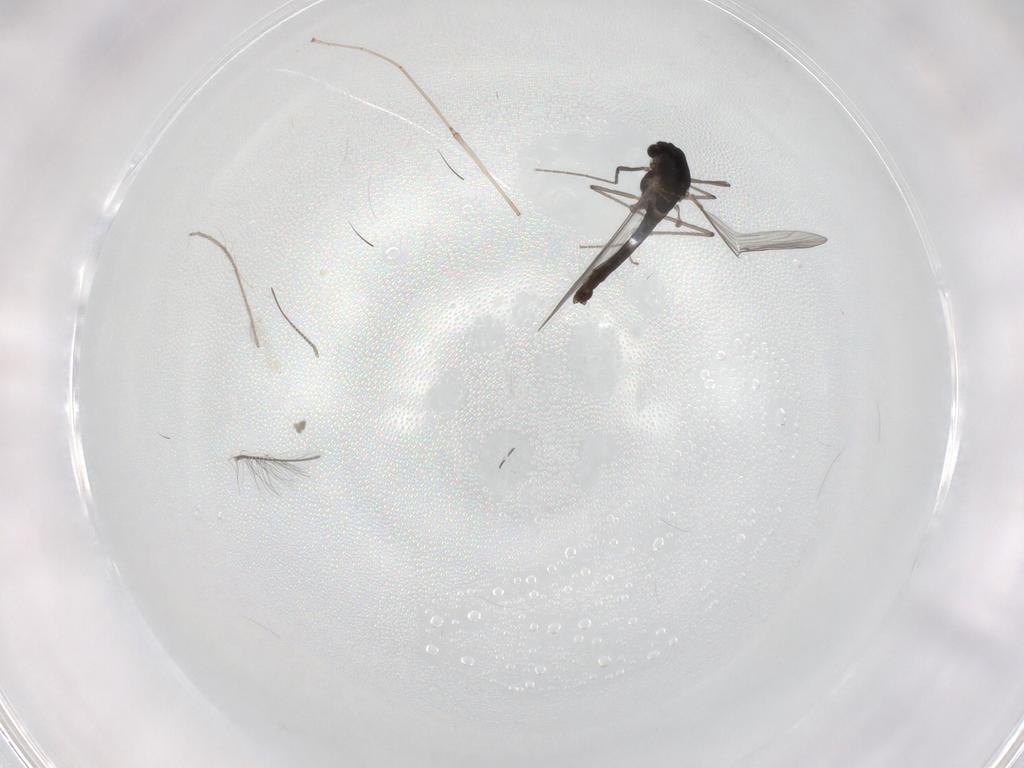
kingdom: Animalia
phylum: Arthropoda
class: Insecta
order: Diptera
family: Chironomidae
